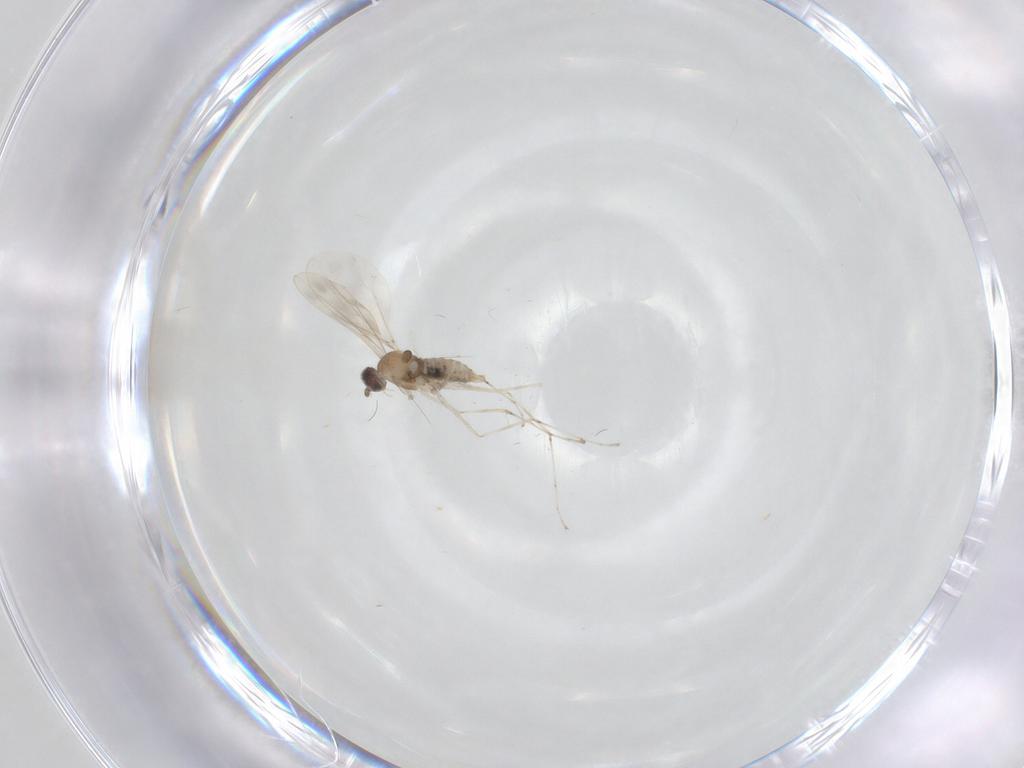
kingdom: Animalia
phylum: Arthropoda
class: Insecta
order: Diptera
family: Cecidomyiidae
